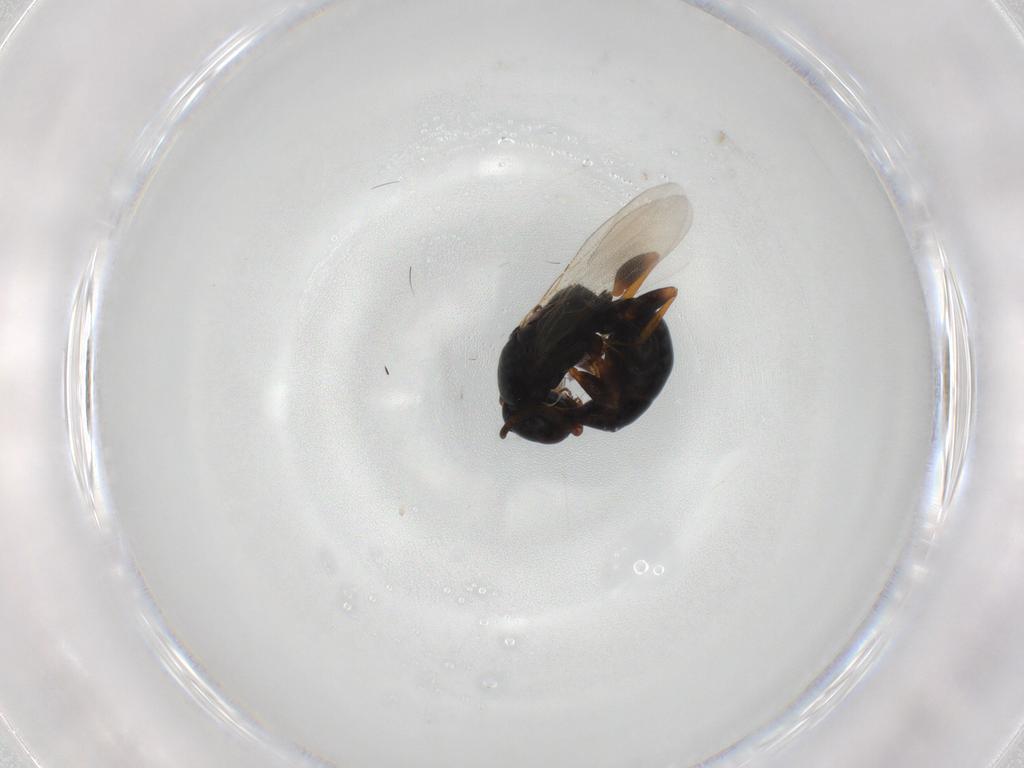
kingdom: Animalia
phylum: Arthropoda
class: Insecta
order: Hymenoptera
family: Bethylidae
